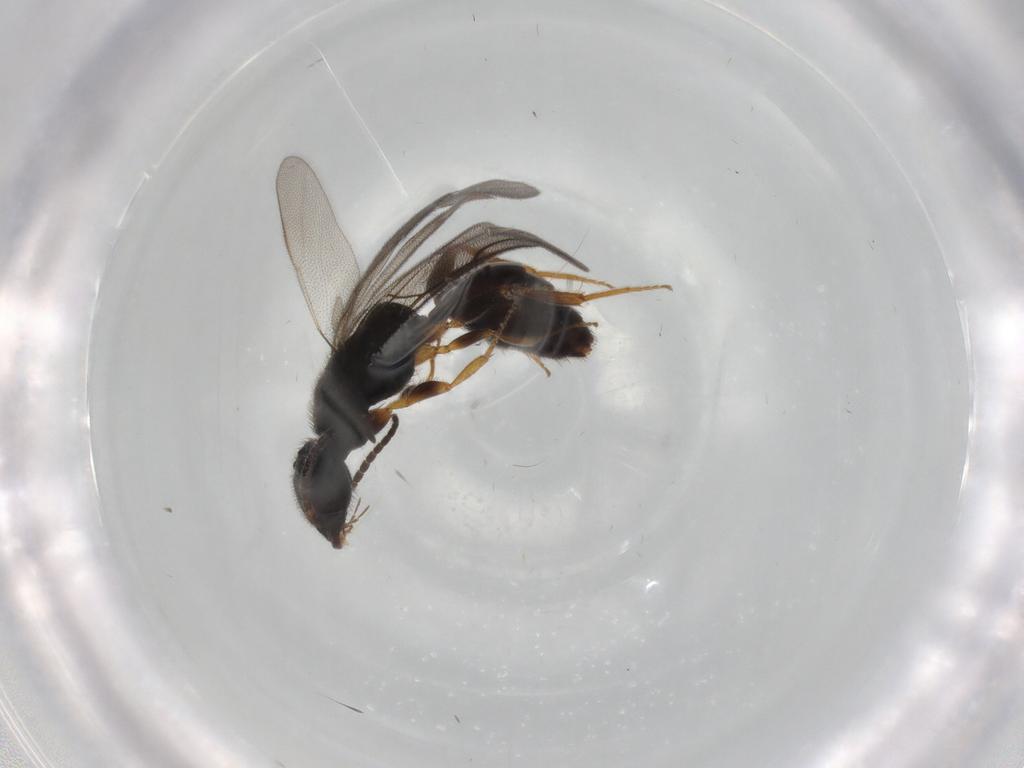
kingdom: Animalia
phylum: Arthropoda
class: Insecta
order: Hymenoptera
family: Bethylidae
